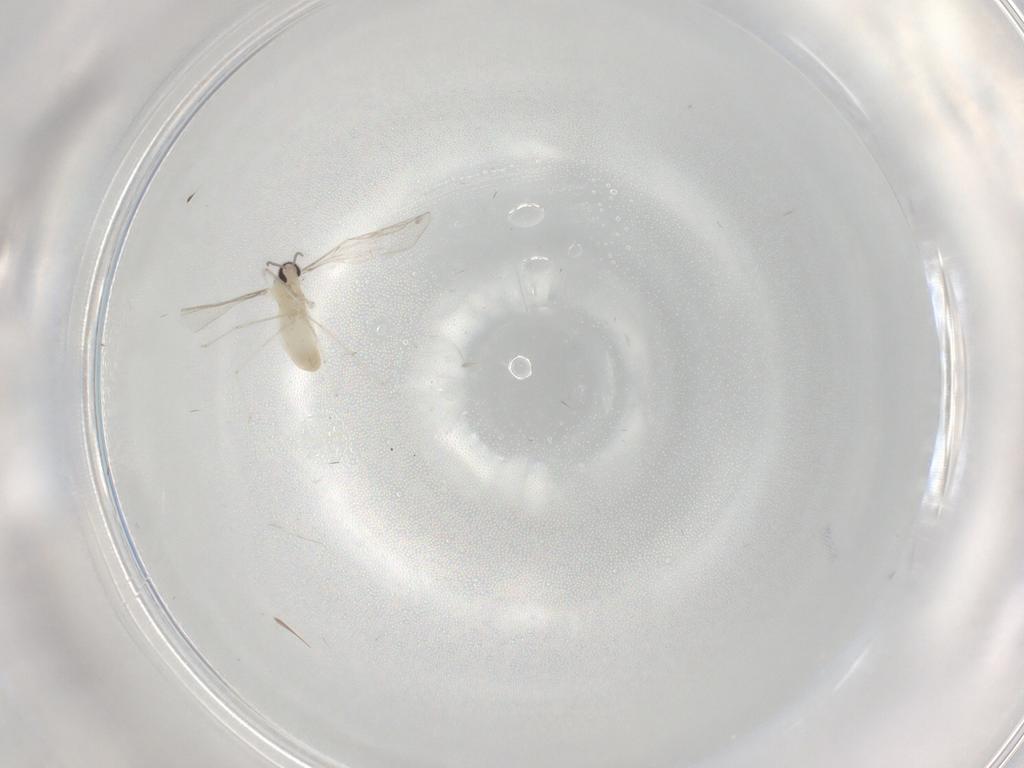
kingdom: Animalia
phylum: Arthropoda
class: Insecta
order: Diptera
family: Cecidomyiidae
